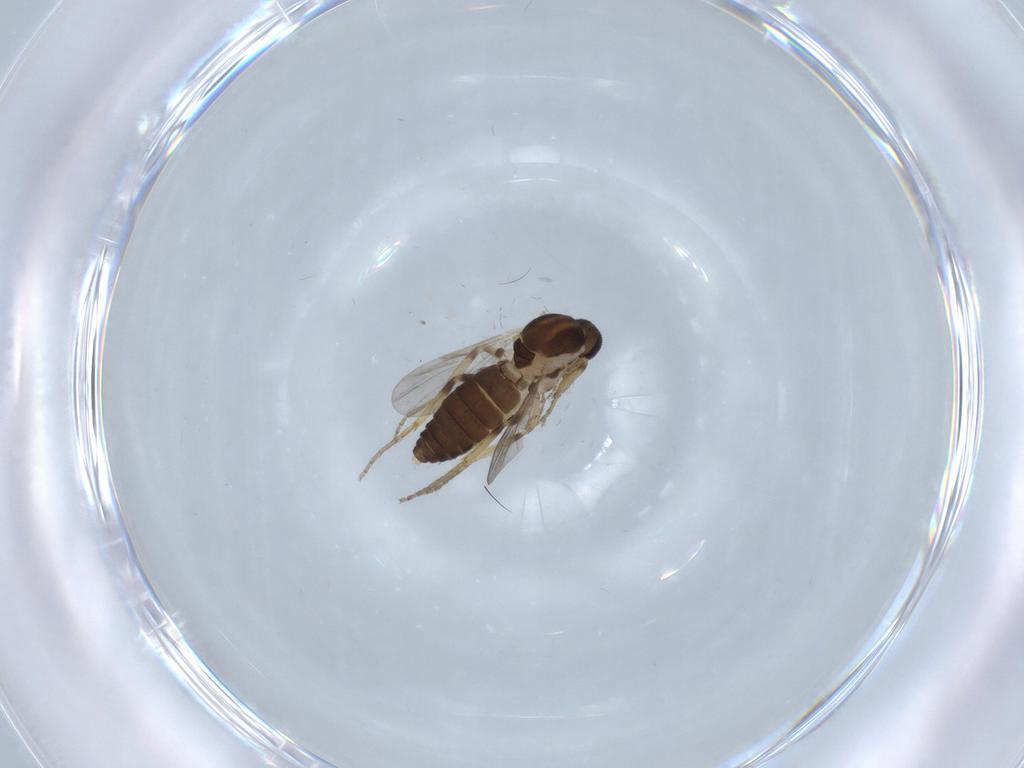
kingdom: Animalia
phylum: Arthropoda
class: Insecta
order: Diptera
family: Ceratopogonidae
